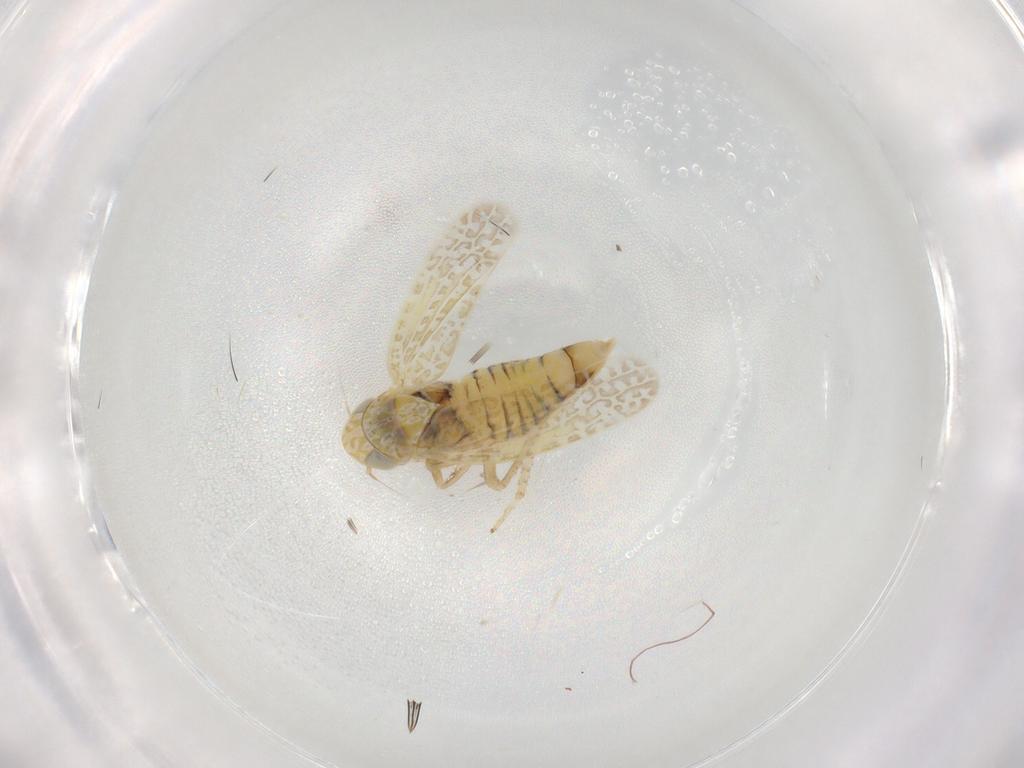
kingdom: Animalia
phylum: Arthropoda
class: Insecta
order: Hemiptera
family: Cicadellidae
